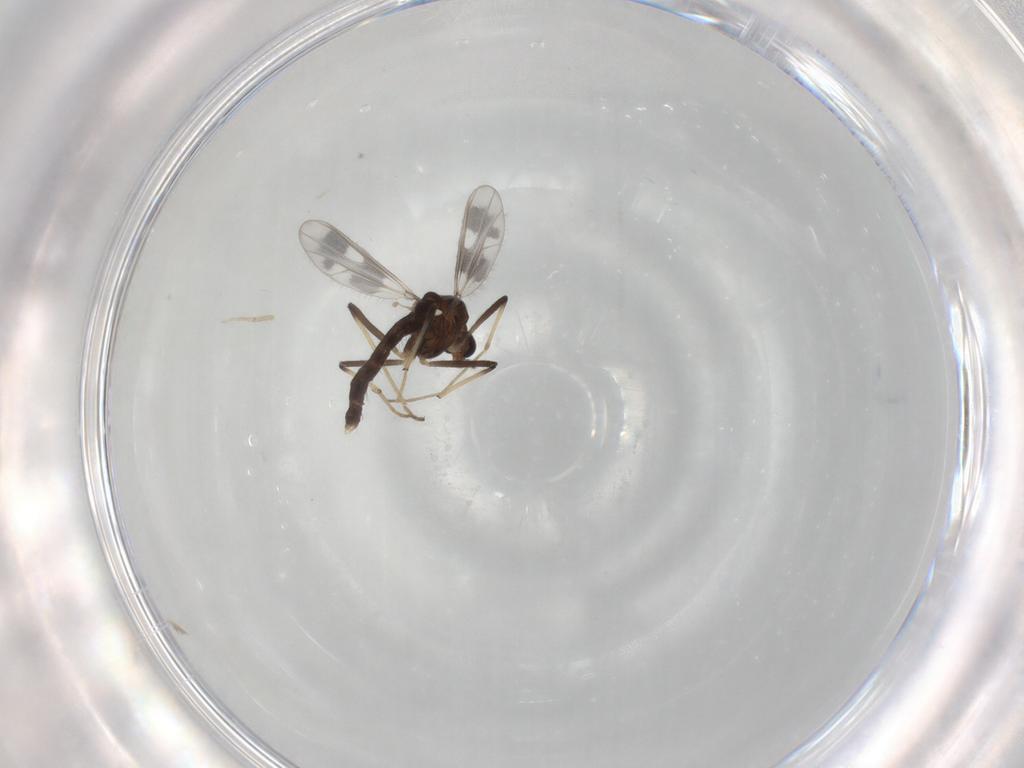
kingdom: Animalia
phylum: Arthropoda
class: Insecta
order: Diptera
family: Chironomidae
